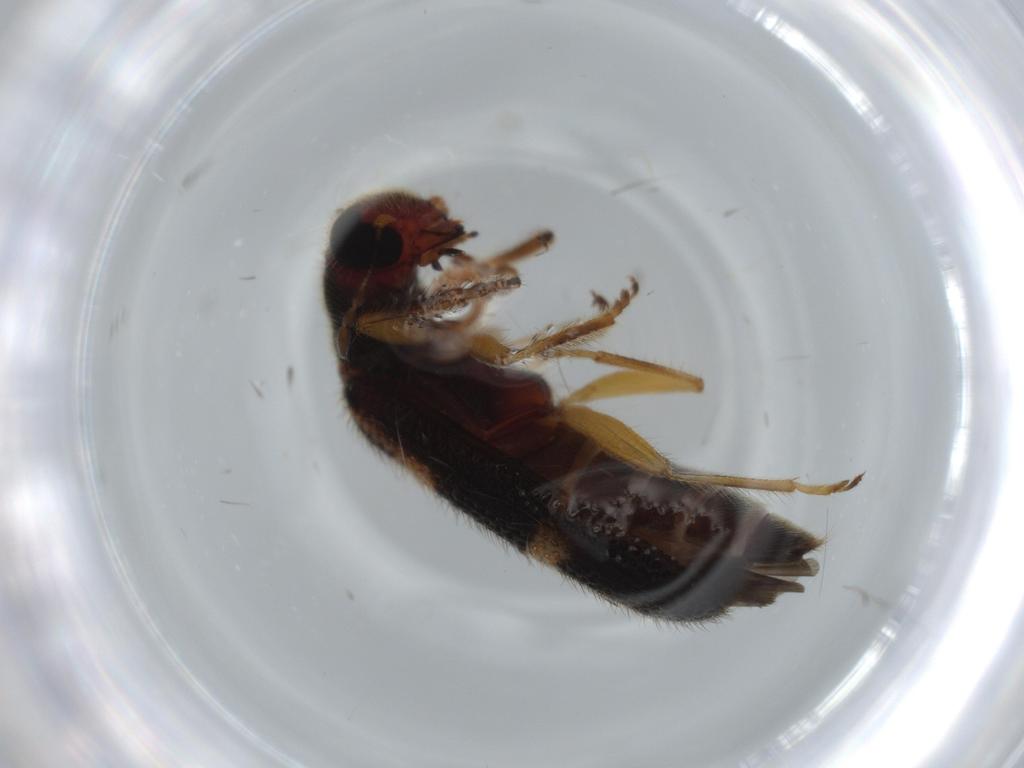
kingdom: Animalia
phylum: Arthropoda
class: Insecta
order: Coleoptera
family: Cleridae
